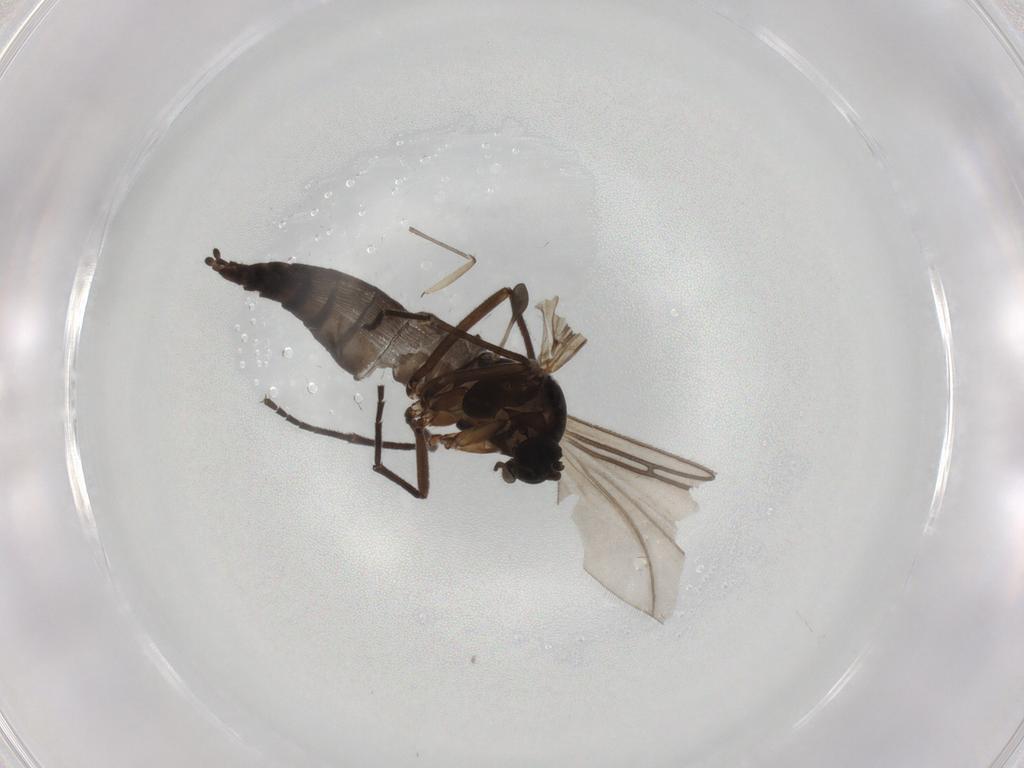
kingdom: Animalia
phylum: Arthropoda
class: Insecta
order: Diptera
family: Sciaridae
